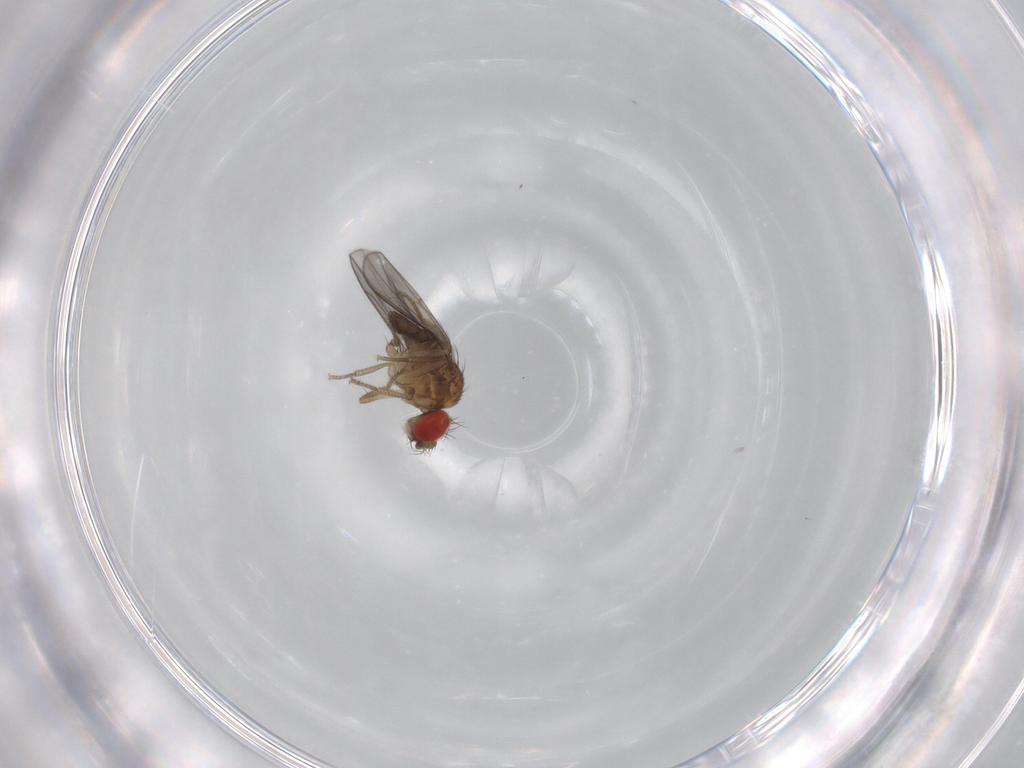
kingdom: Animalia
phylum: Arthropoda
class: Insecta
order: Diptera
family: Drosophilidae
